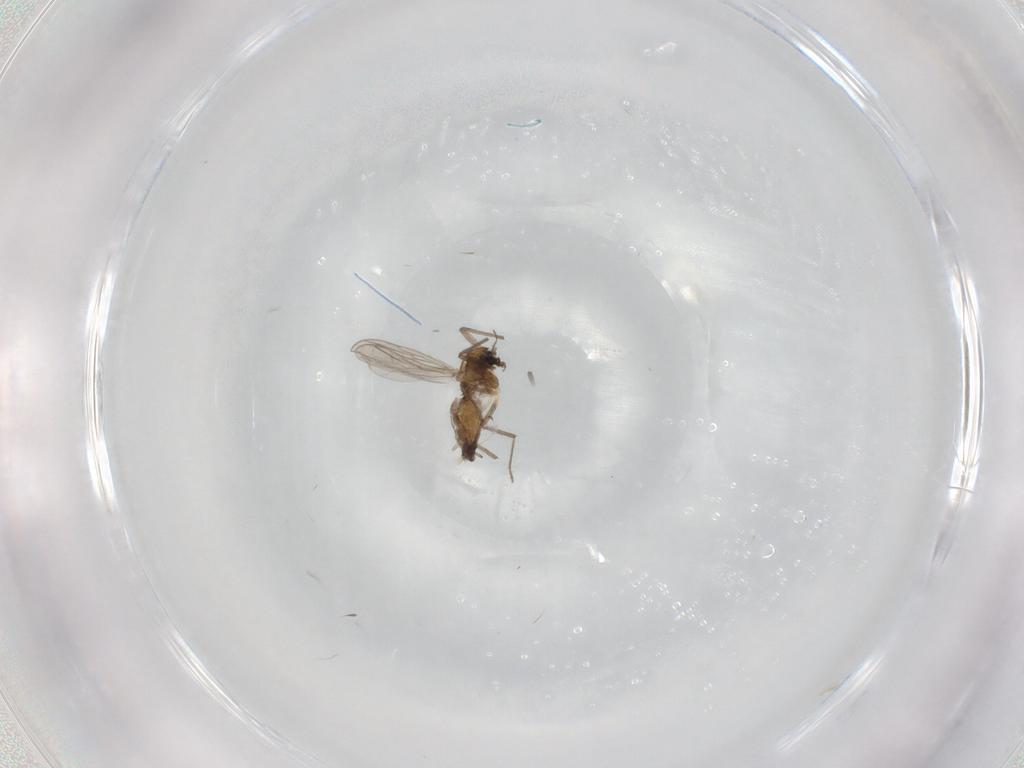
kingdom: Animalia
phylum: Arthropoda
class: Insecta
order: Diptera
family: Chironomidae
